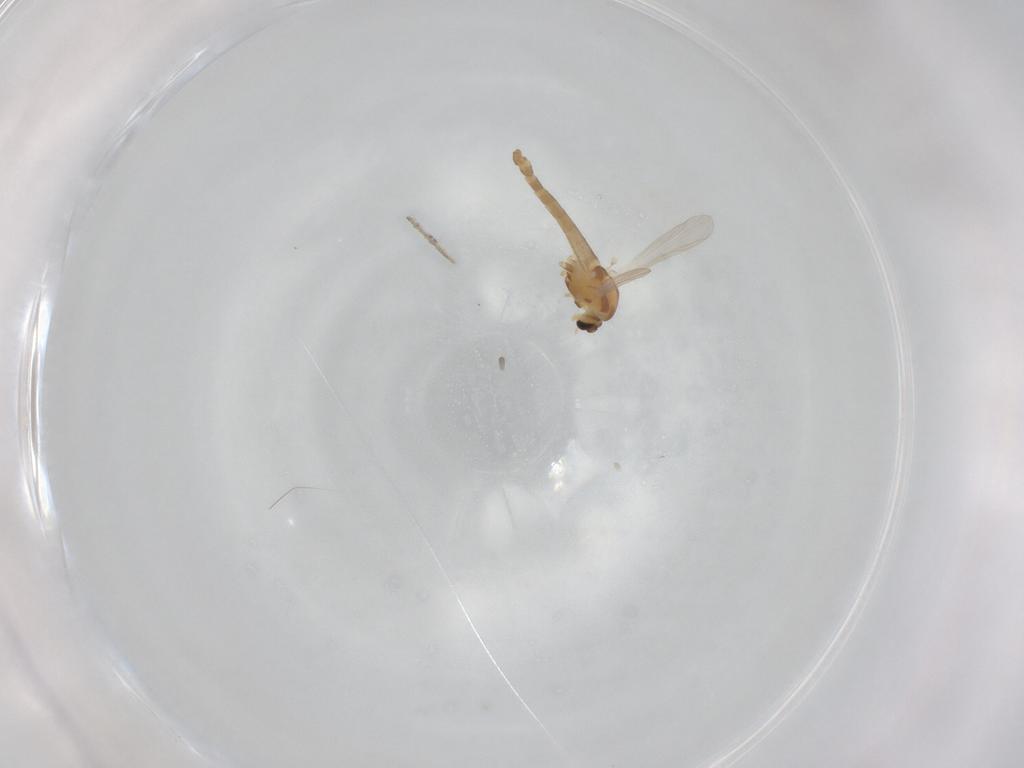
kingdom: Animalia
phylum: Arthropoda
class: Insecta
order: Diptera
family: Chironomidae
